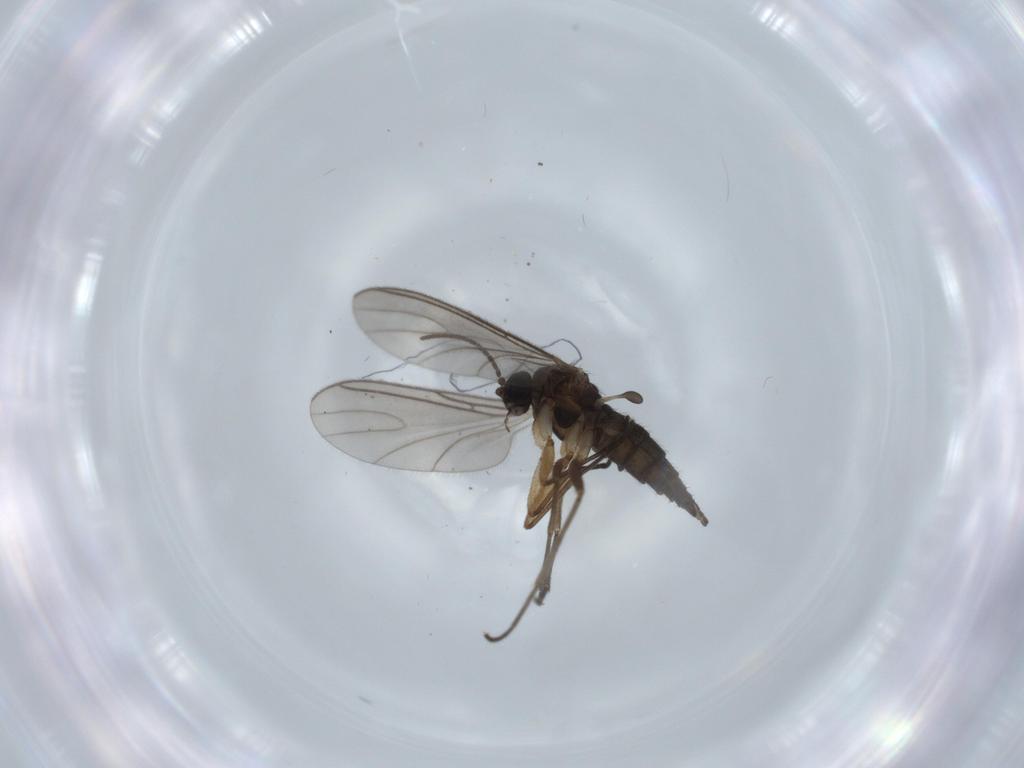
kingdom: Animalia
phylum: Arthropoda
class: Insecta
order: Diptera
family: Sciaridae
